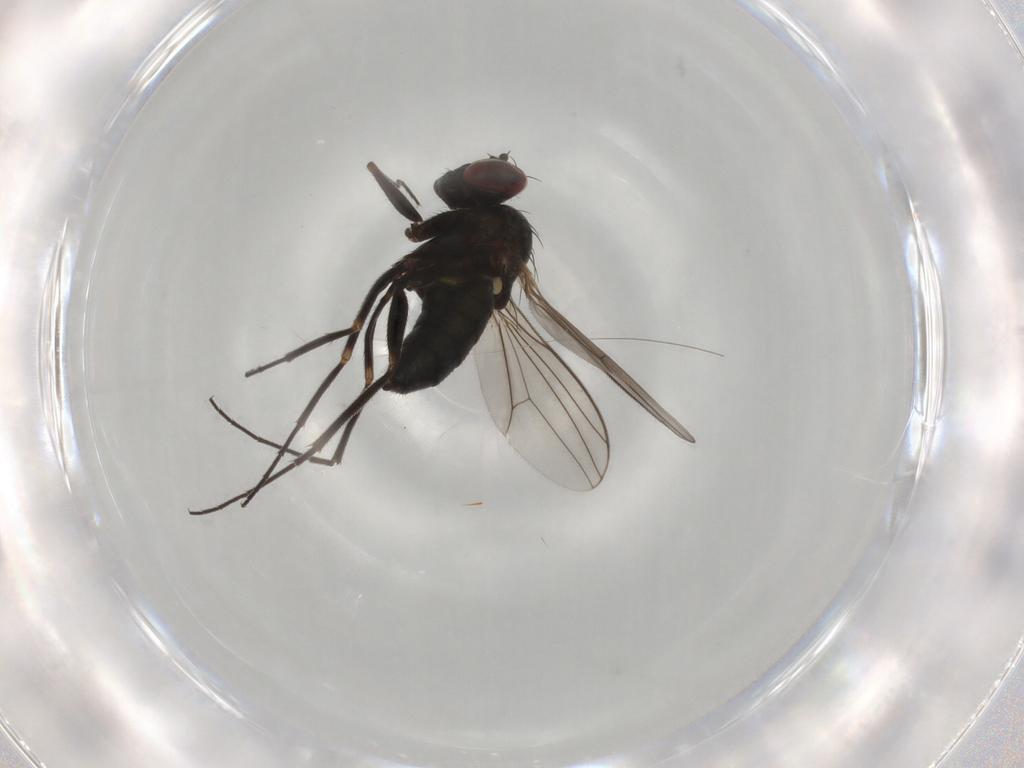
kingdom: Animalia
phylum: Arthropoda
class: Insecta
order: Diptera
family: Dolichopodidae
